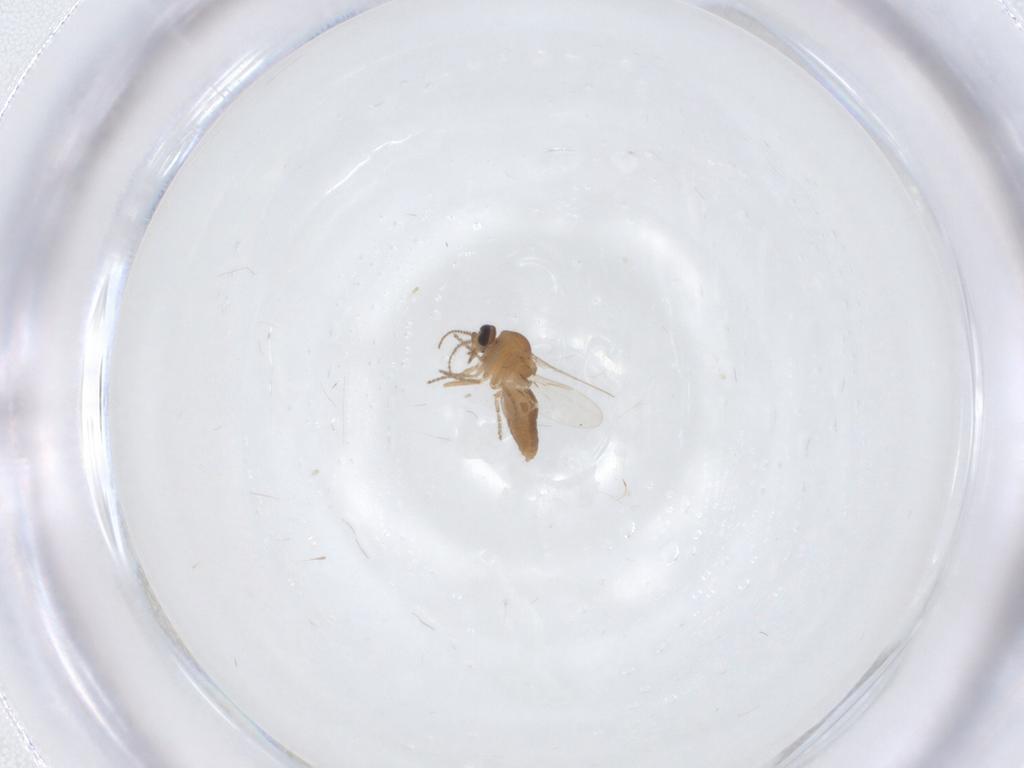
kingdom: Animalia
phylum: Arthropoda
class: Insecta
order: Diptera
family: Ceratopogonidae
